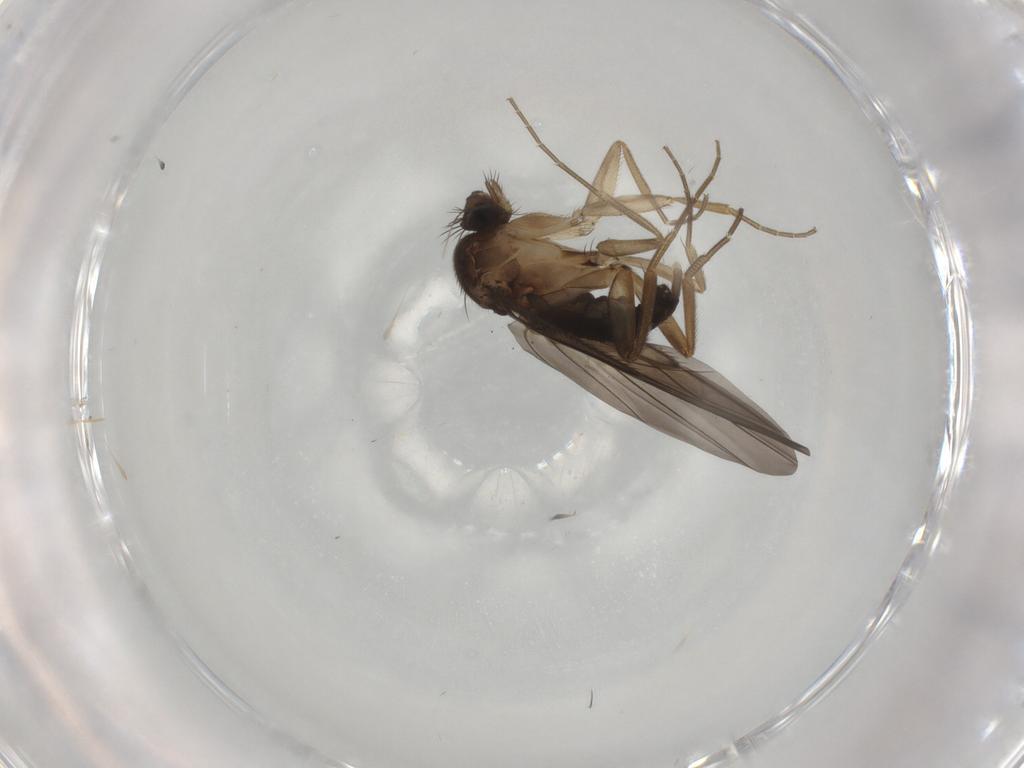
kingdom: Animalia
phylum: Arthropoda
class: Insecta
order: Diptera
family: Phoridae
